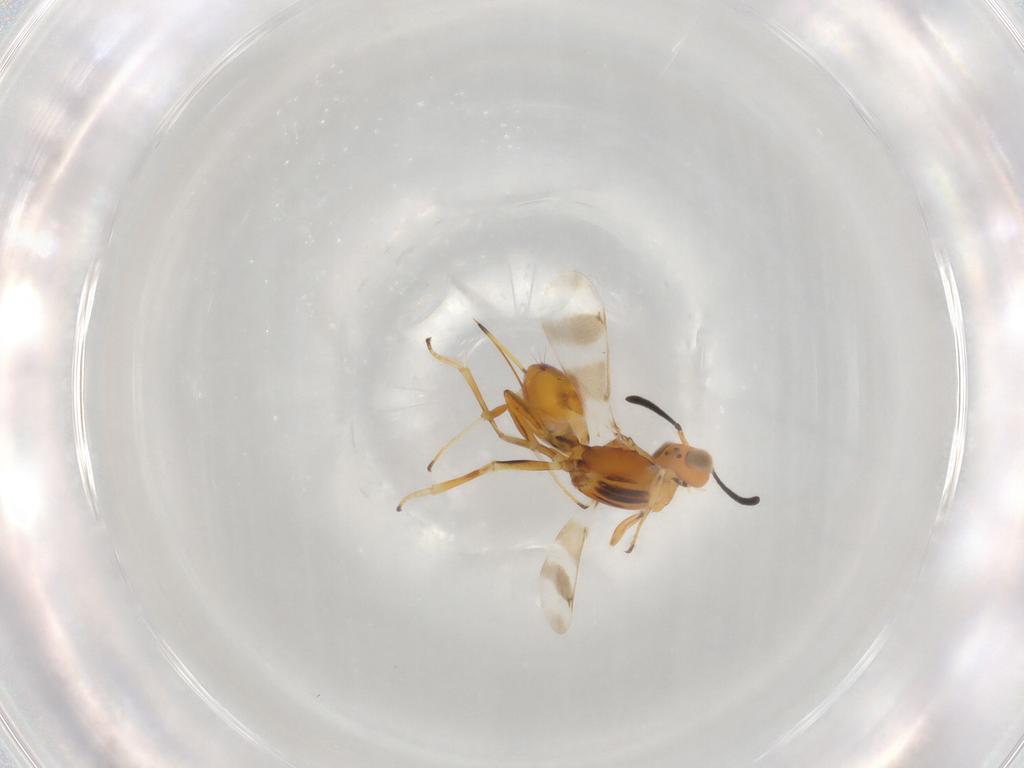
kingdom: Animalia
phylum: Arthropoda
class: Insecta
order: Hymenoptera
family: Eupelmidae
